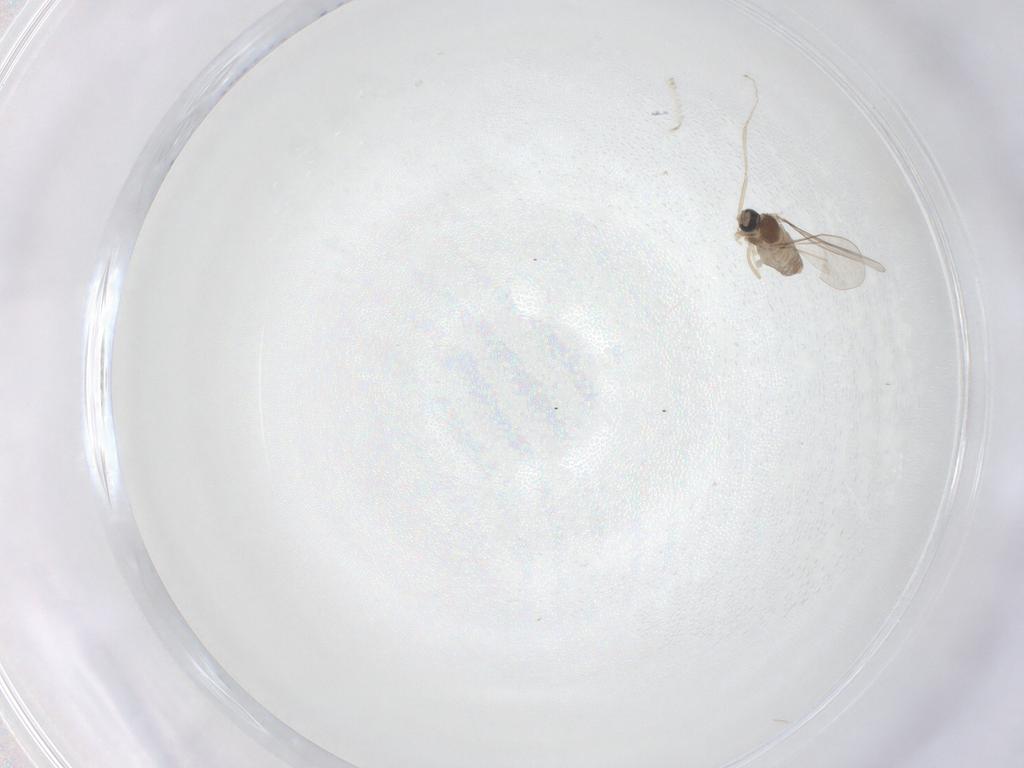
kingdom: Animalia
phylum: Arthropoda
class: Insecta
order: Diptera
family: Cecidomyiidae
